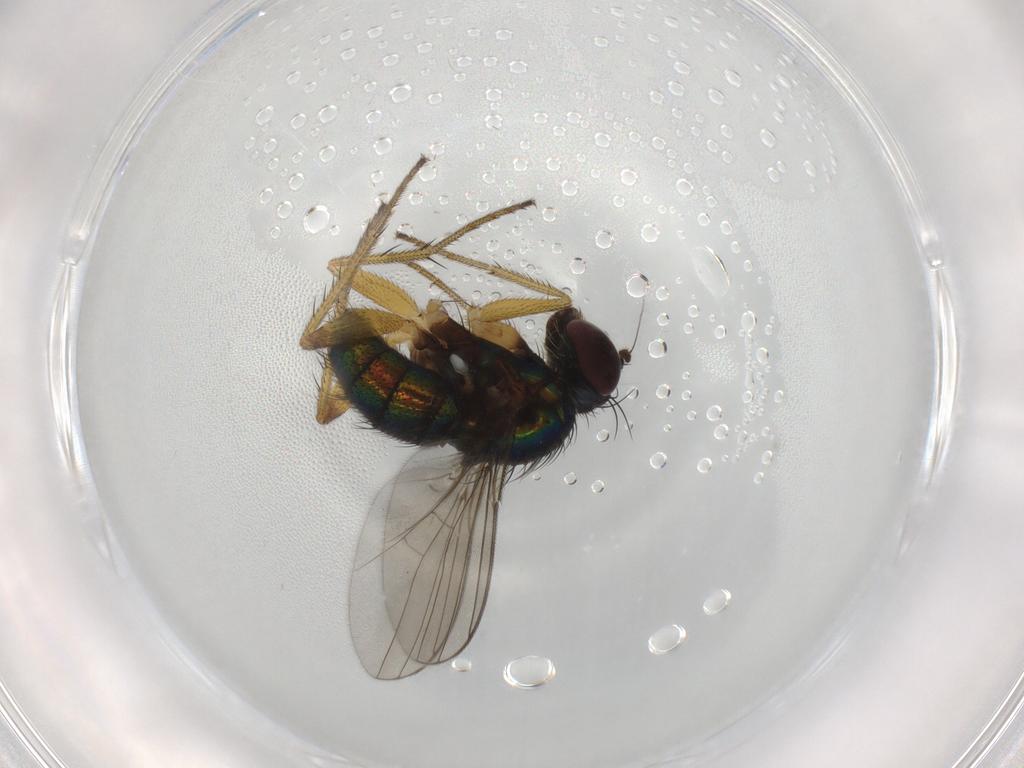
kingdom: Animalia
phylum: Arthropoda
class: Insecta
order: Diptera
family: Dolichopodidae
